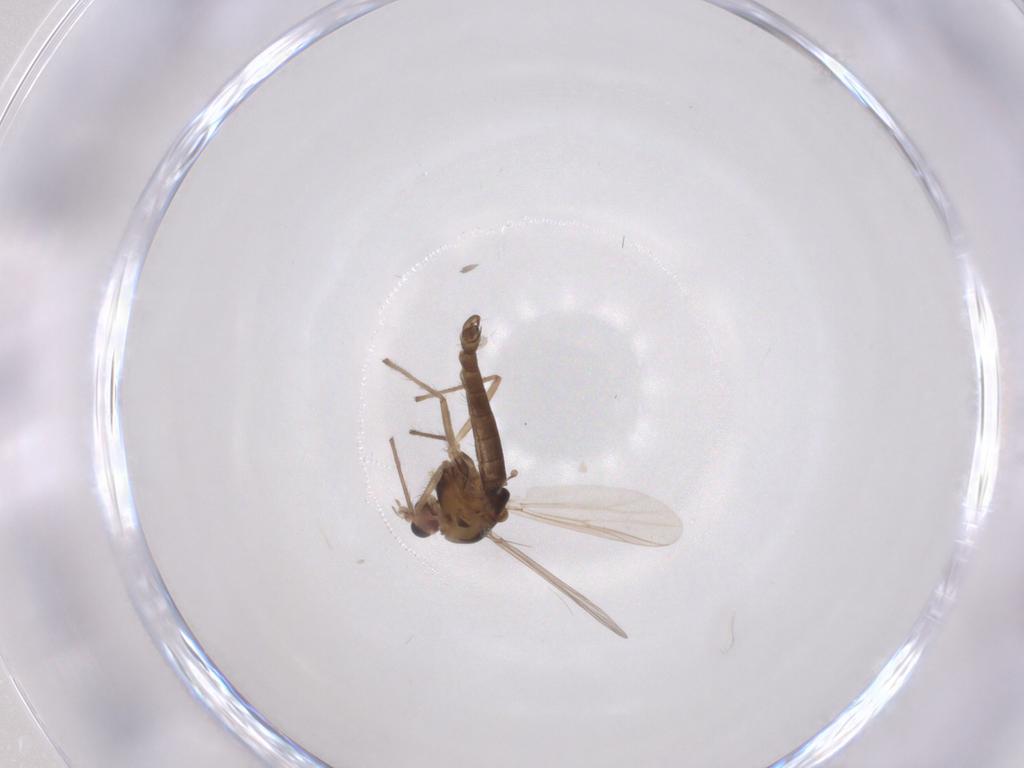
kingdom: Animalia
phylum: Arthropoda
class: Insecta
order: Diptera
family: Chironomidae
